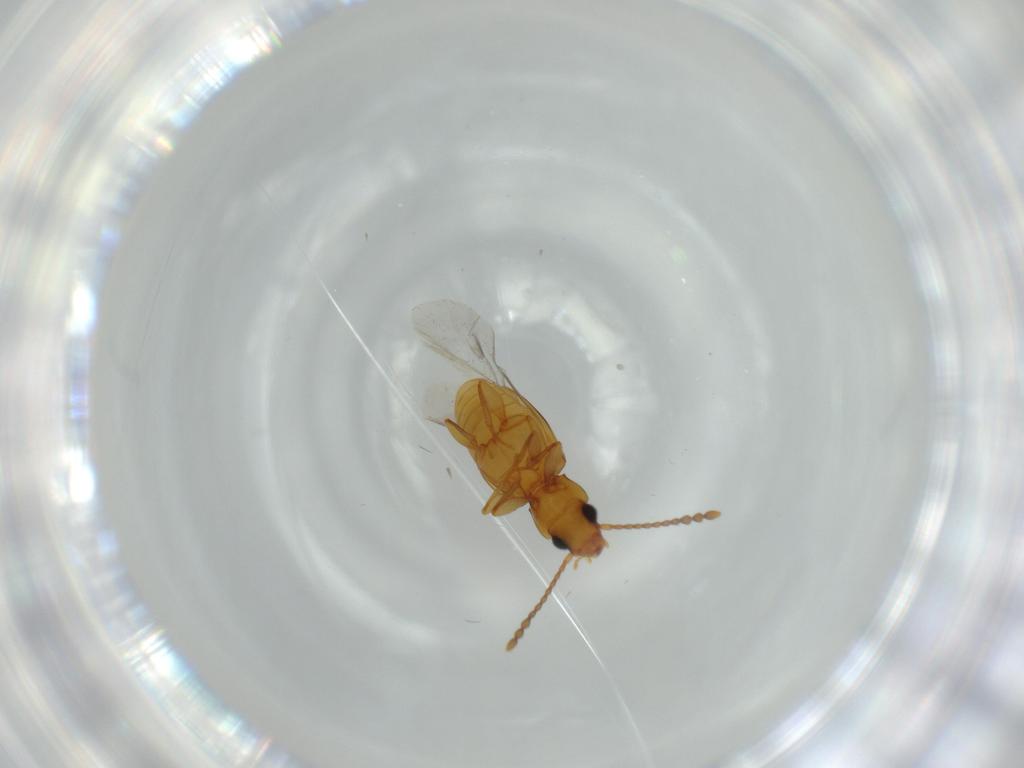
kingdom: Animalia
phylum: Arthropoda
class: Insecta
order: Coleoptera
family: Laemophloeidae
